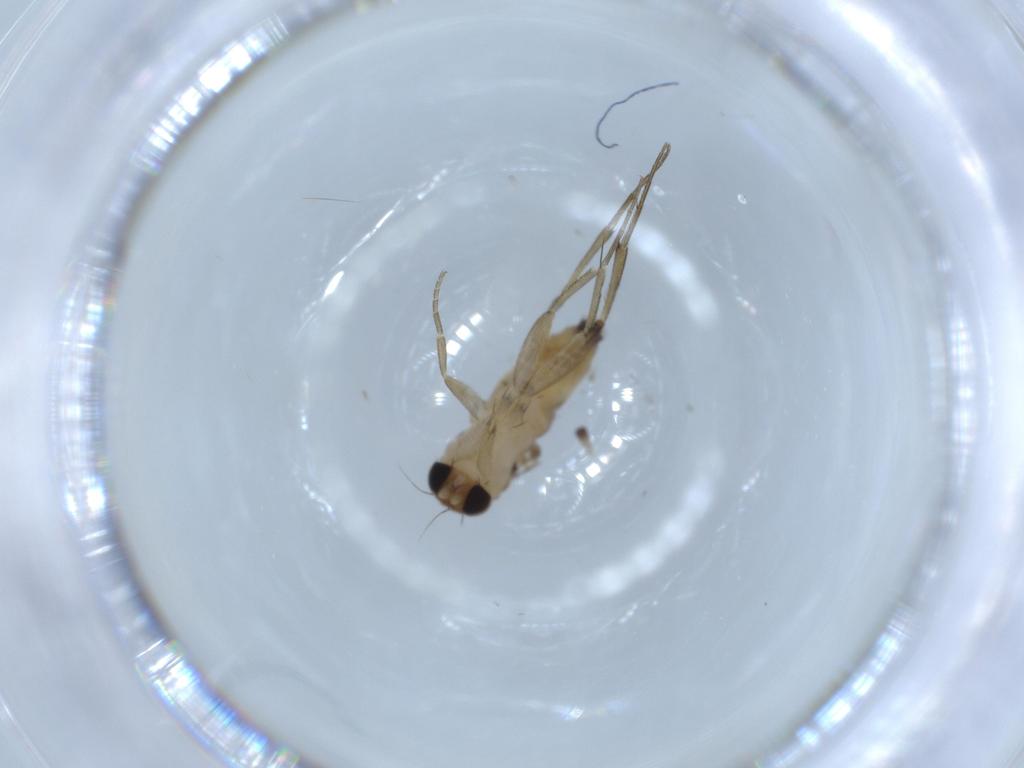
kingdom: Animalia
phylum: Arthropoda
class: Insecta
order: Diptera
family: Phoridae
